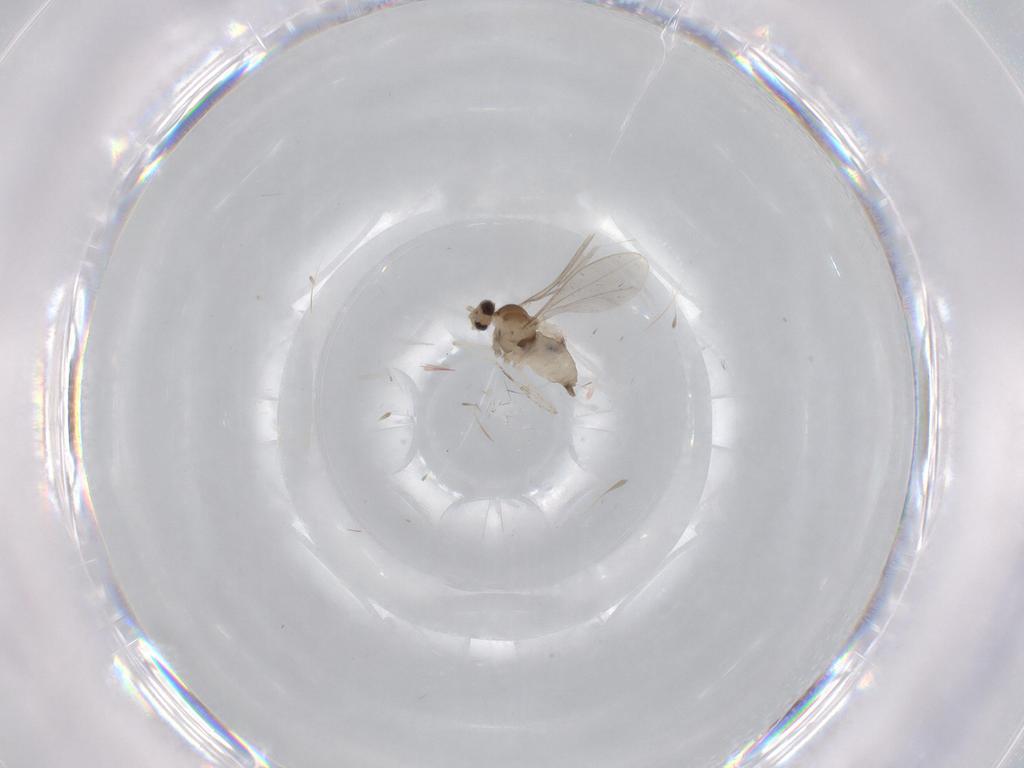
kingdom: Animalia
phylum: Arthropoda
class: Insecta
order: Diptera
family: Cecidomyiidae
